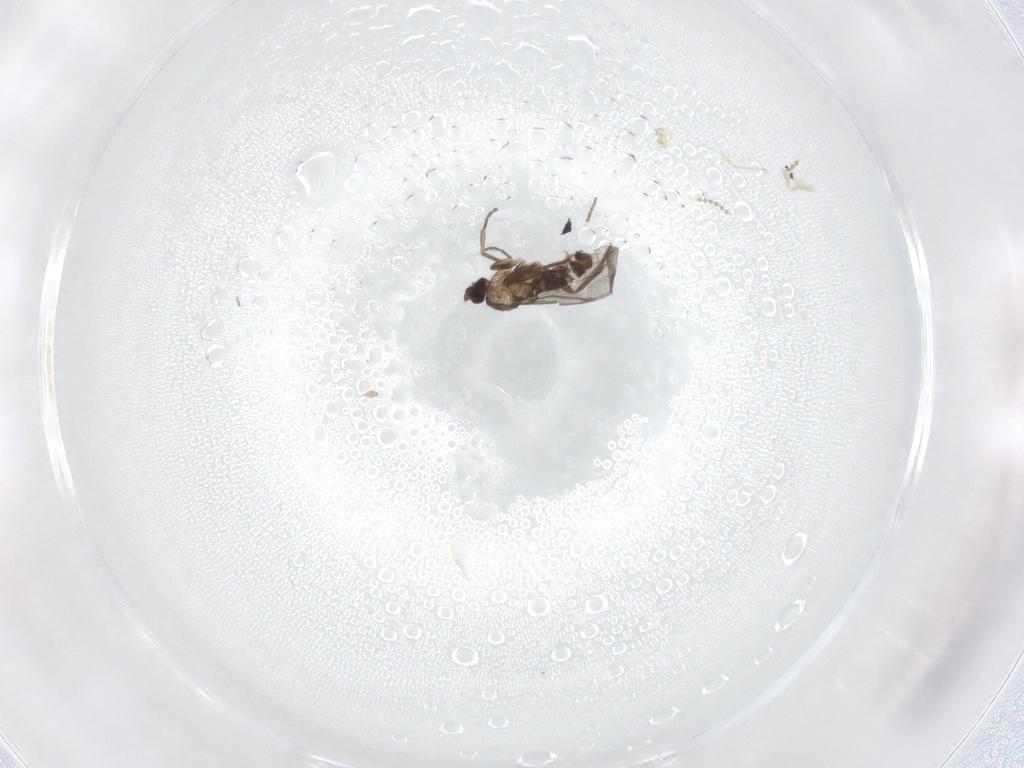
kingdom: Animalia
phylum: Arthropoda
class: Insecta
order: Diptera
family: Phoridae
